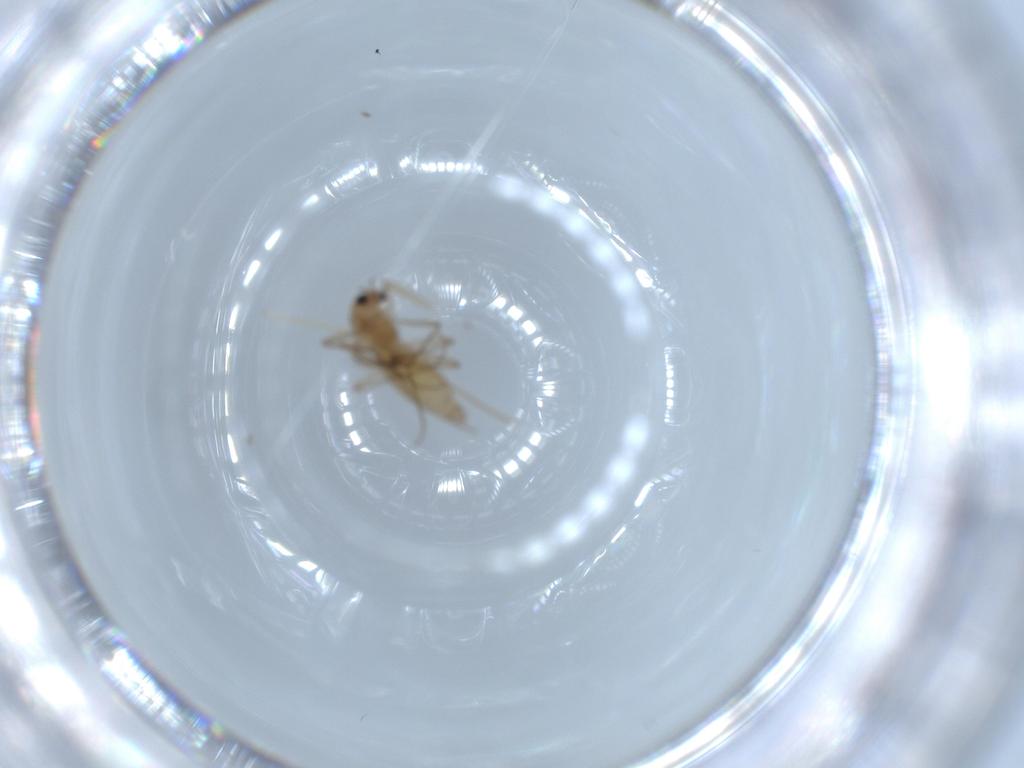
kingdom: Animalia
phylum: Arthropoda
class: Insecta
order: Diptera
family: Chironomidae
